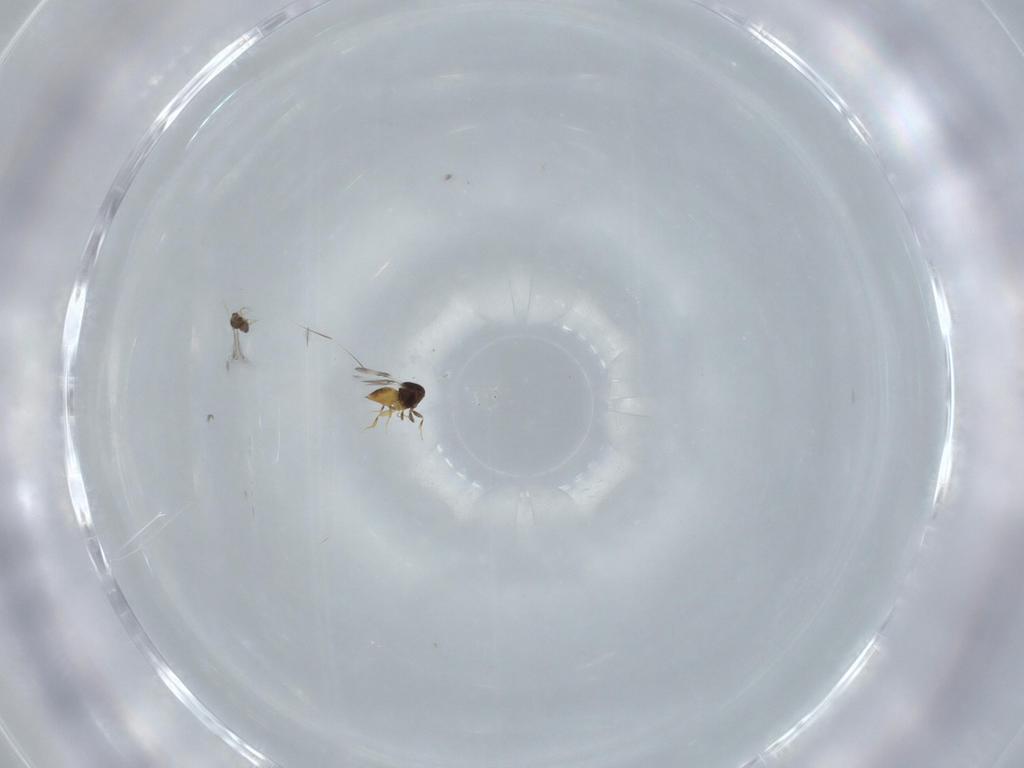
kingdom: Animalia
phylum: Arthropoda
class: Insecta
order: Hymenoptera
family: Trichogrammatidae
